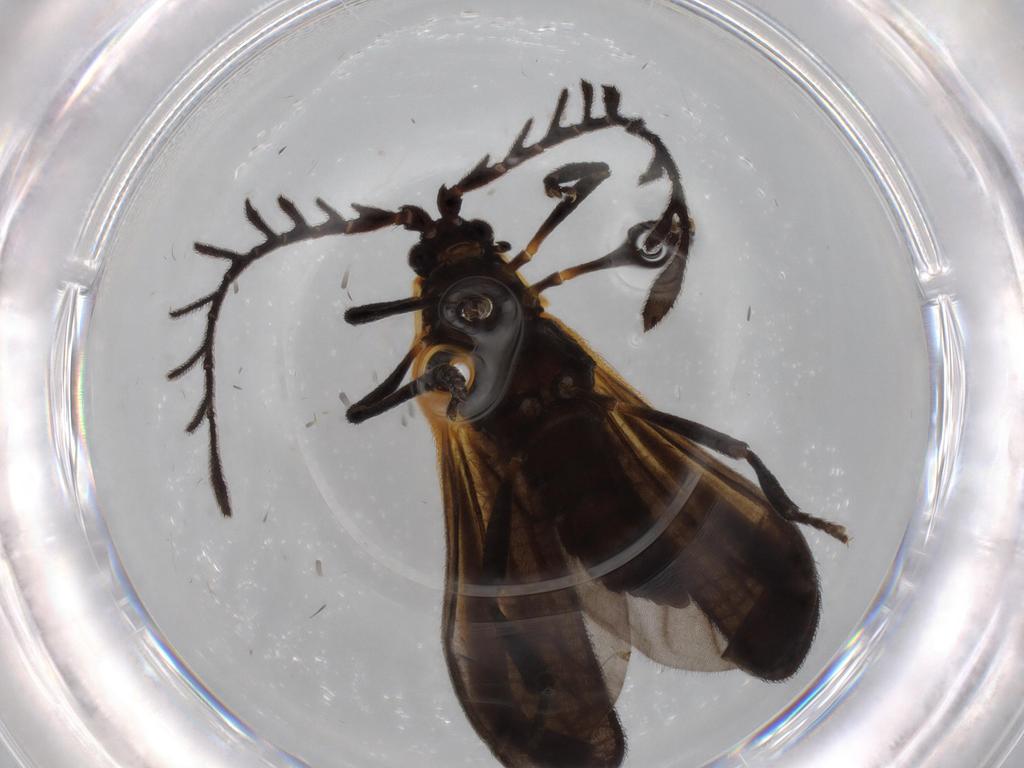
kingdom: Animalia
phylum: Arthropoda
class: Insecta
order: Coleoptera
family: Lycidae
